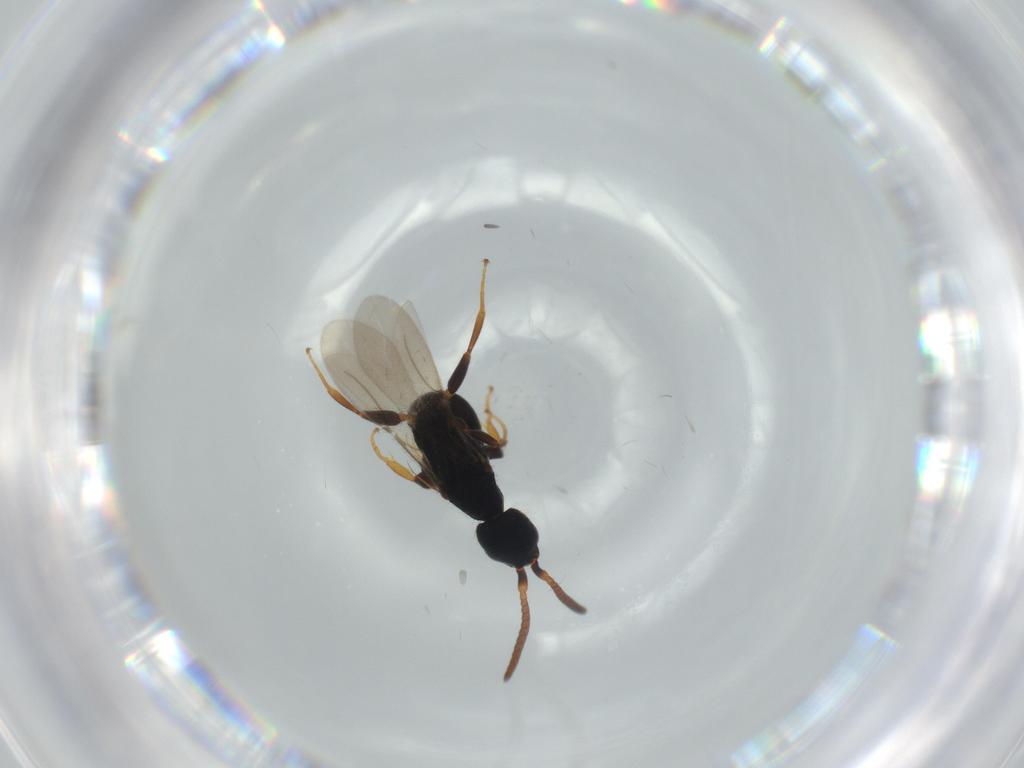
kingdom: Animalia
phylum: Arthropoda
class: Insecta
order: Hymenoptera
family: Bethylidae
